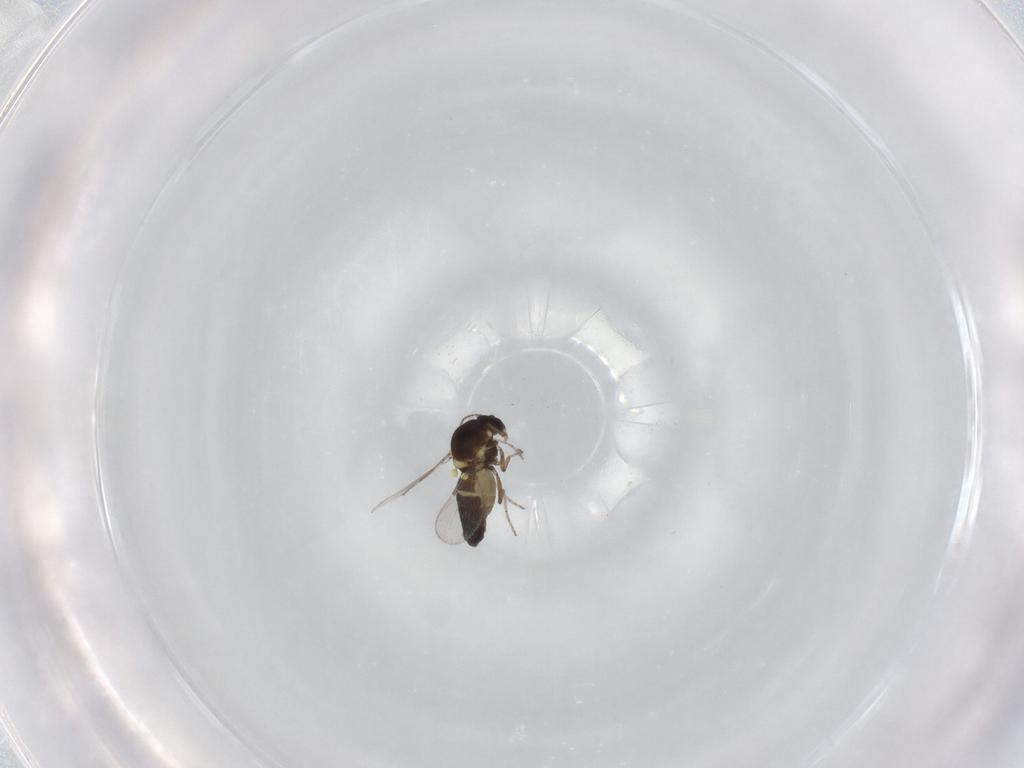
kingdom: Animalia
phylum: Arthropoda
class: Insecta
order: Diptera
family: Ceratopogonidae
